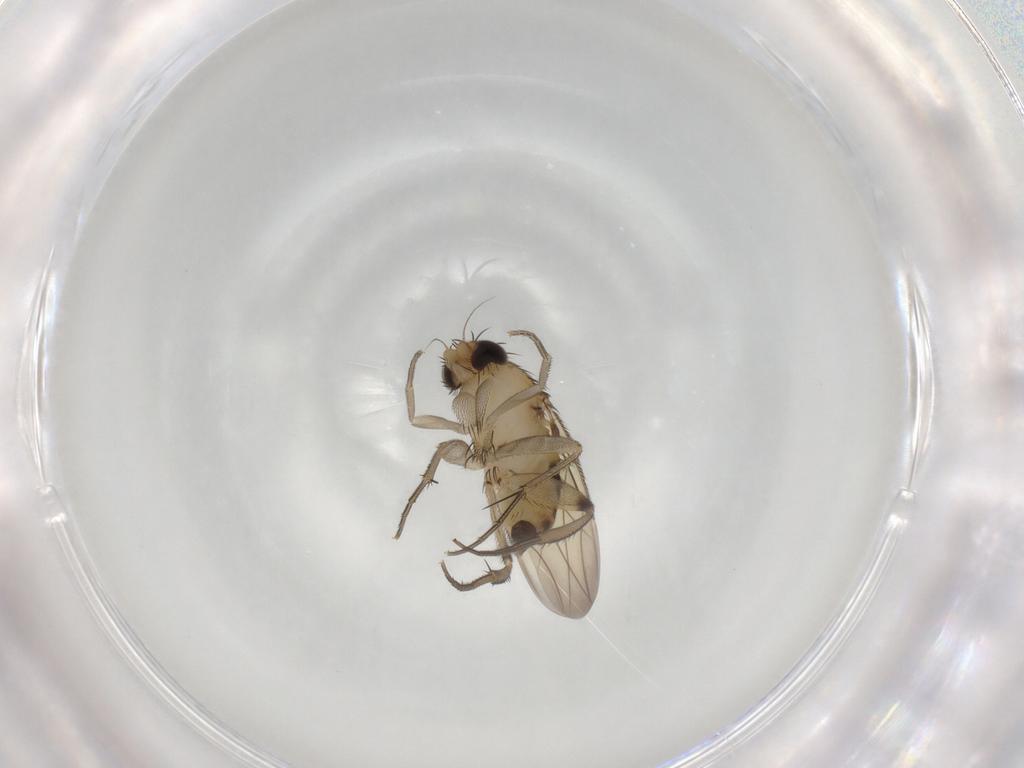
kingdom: Animalia
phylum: Arthropoda
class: Insecta
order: Diptera
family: Phoridae
